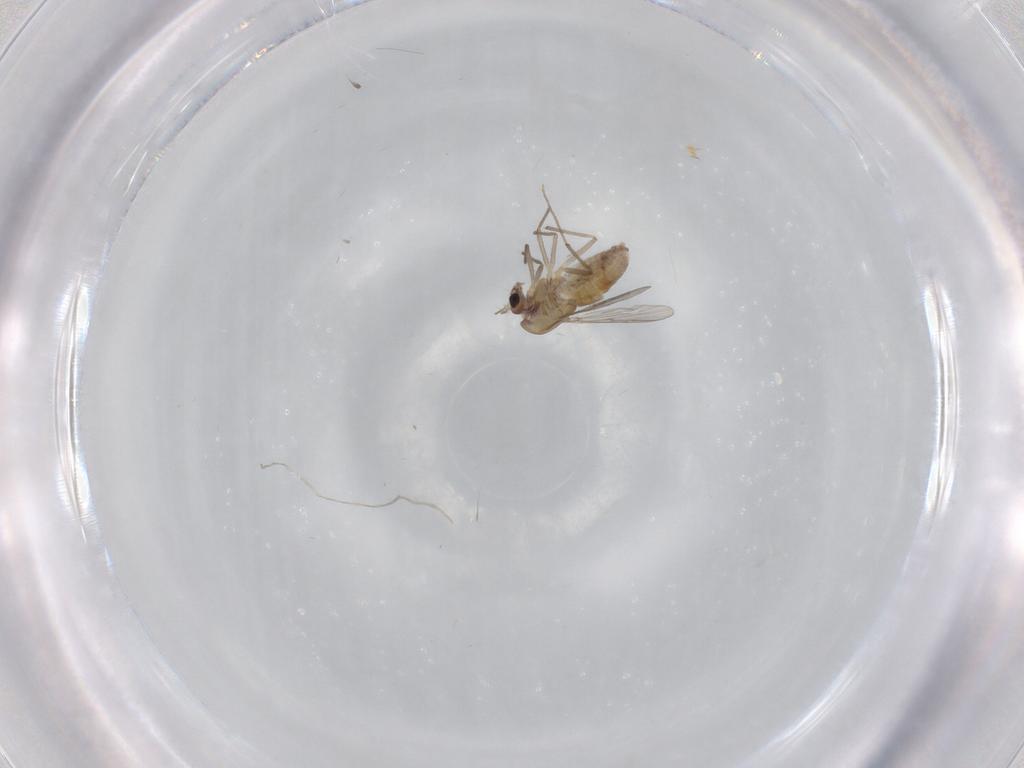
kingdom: Animalia
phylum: Arthropoda
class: Insecta
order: Diptera
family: Chironomidae
